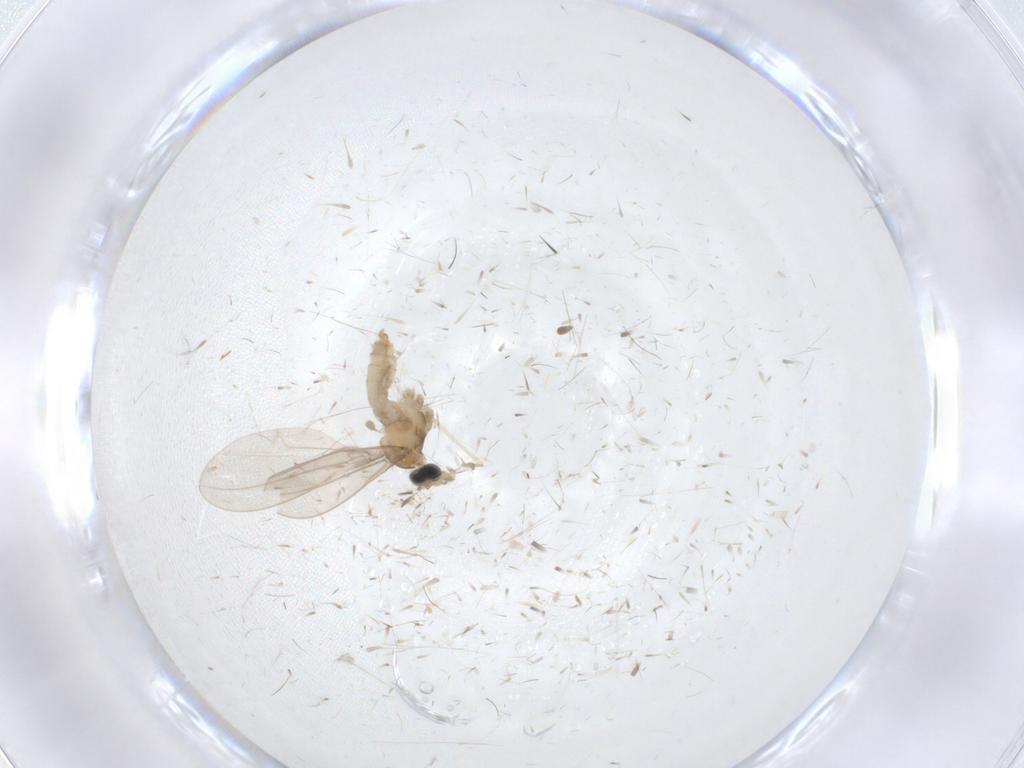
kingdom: Animalia
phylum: Arthropoda
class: Insecta
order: Diptera
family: Cecidomyiidae
